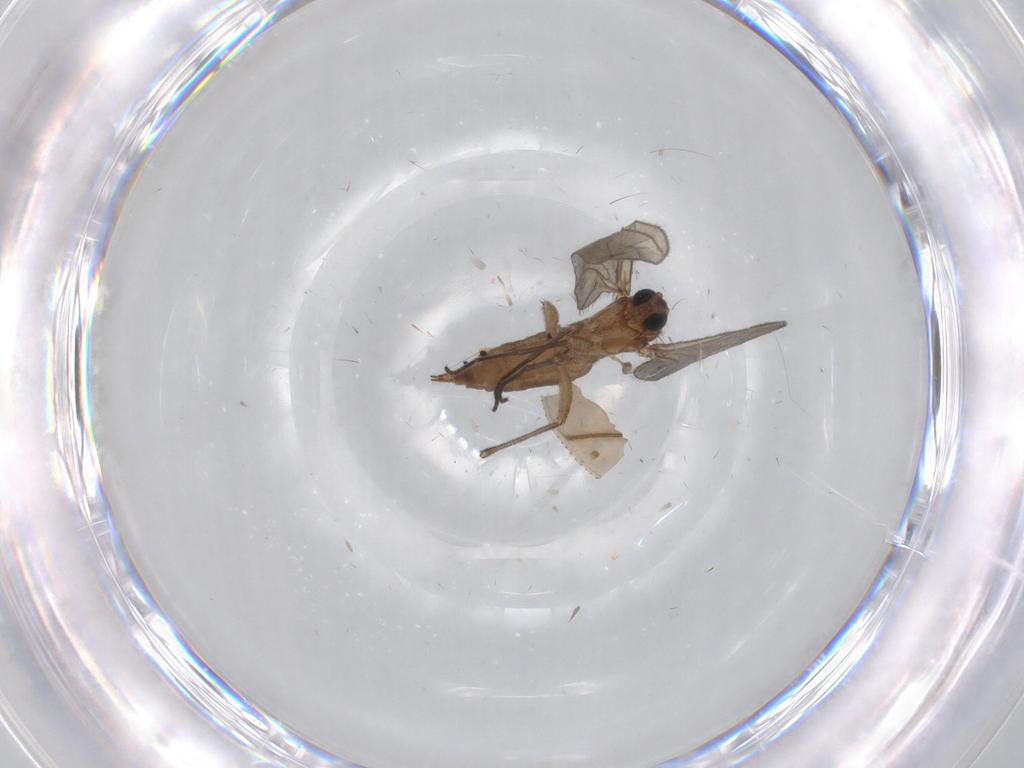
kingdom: Animalia
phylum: Arthropoda
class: Insecta
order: Diptera
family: Sciaridae
